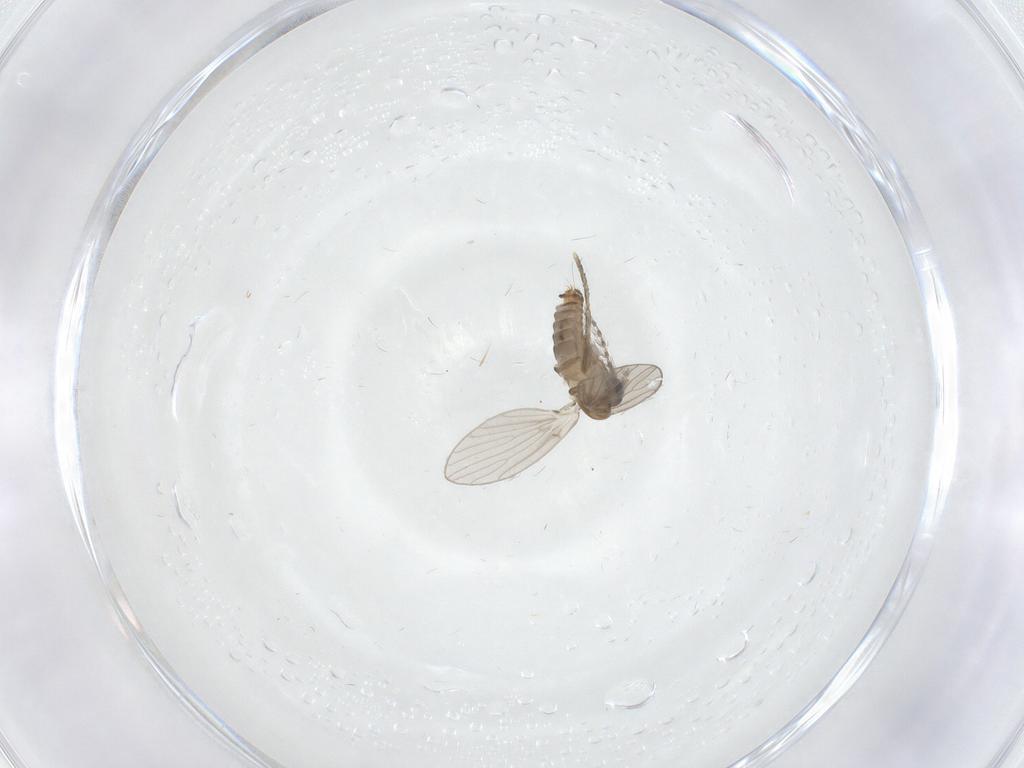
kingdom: Animalia
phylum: Arthropoda
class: Insecta
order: Diptera
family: Psychodidae
